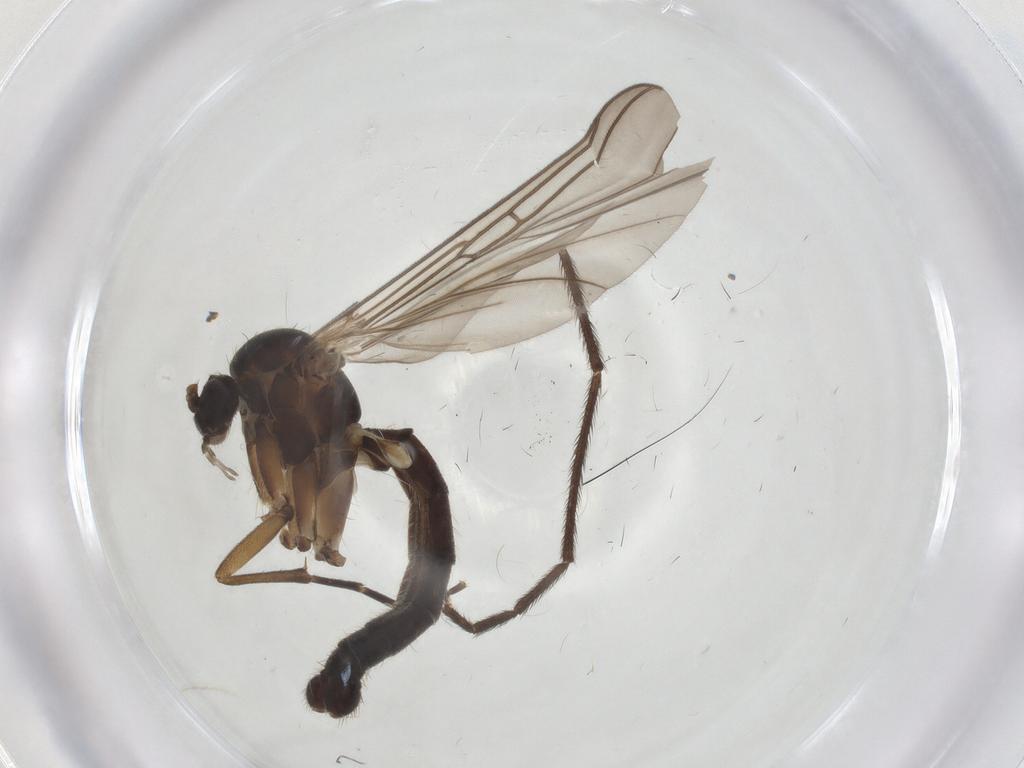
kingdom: Animalia
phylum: Arthropoda
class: Insecta
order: Diptera
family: Mycetophilidae
